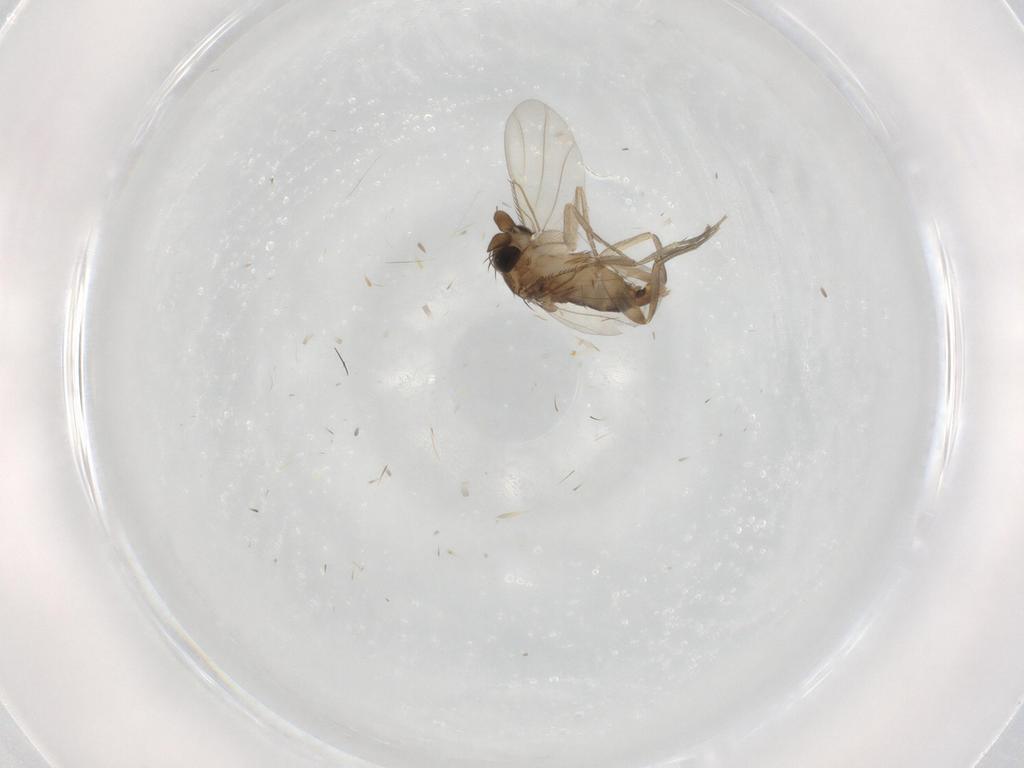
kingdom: Animalia
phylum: Arthropoda
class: Insecta
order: Diptera
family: Phoridae
